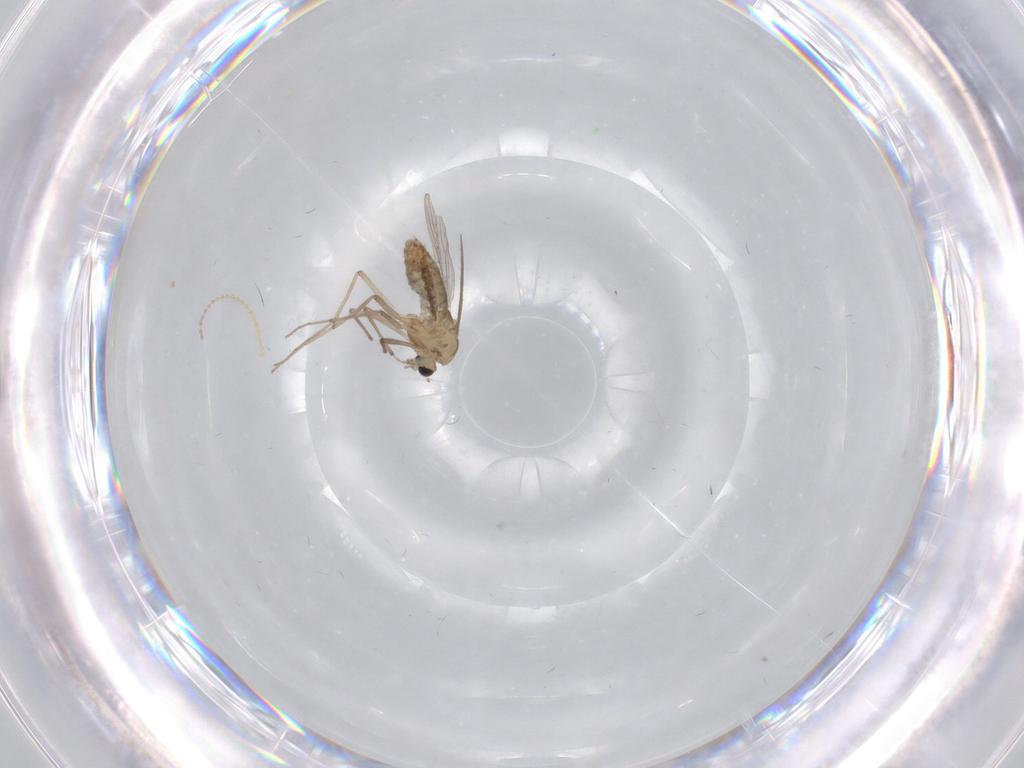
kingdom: Animalia
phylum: Arthropoda
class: Insecta
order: Diptera
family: Chironomidae
